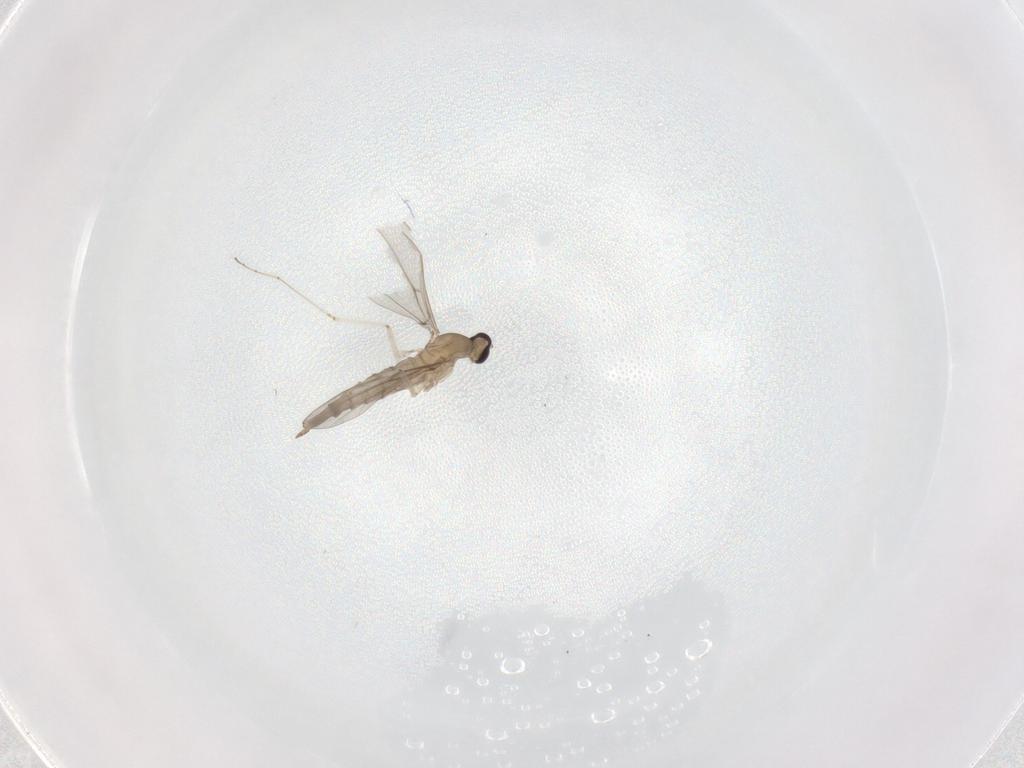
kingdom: Animalia
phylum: Arthropoda
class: Insecta
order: Diptera
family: Cecidomyiidae
